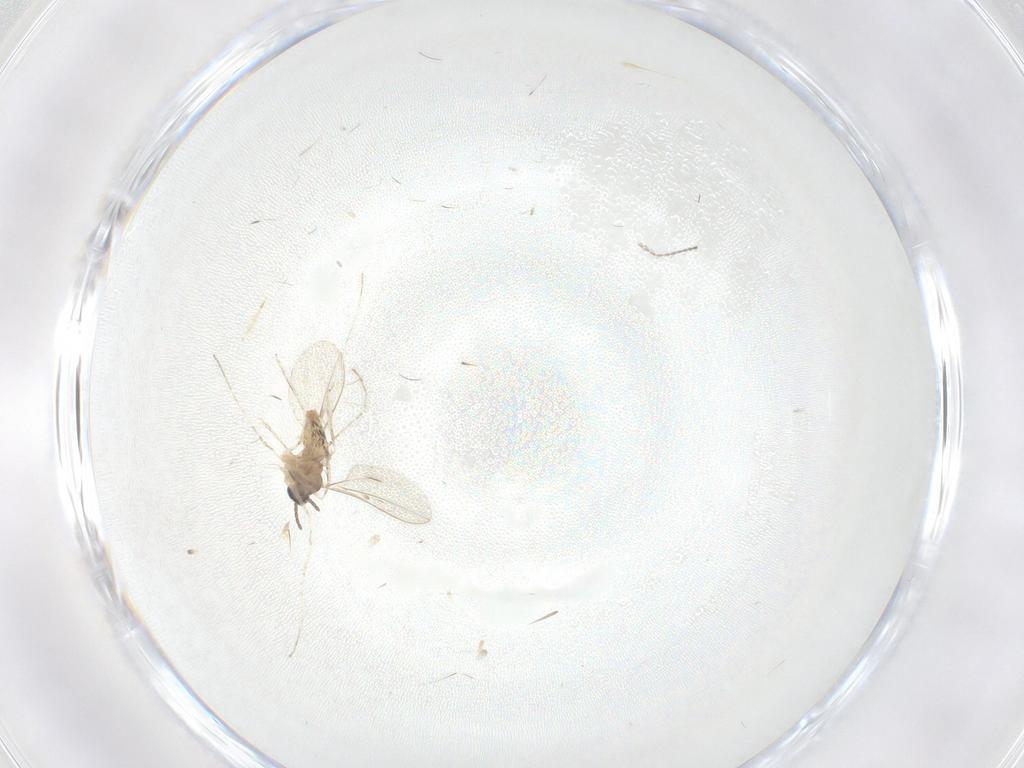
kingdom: Animalia
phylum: Arthropoda
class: Insecta
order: Diptera
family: Cecidomyiidae
